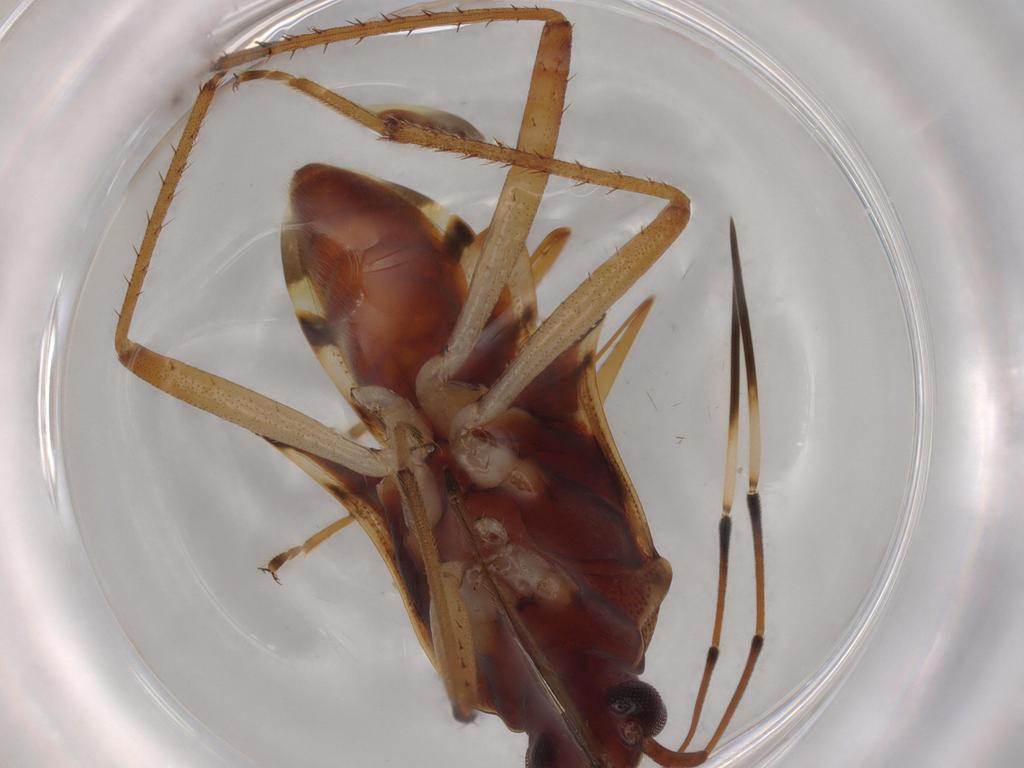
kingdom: Animalia
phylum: Arthropoda
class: Insecta
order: Hemiptera
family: Rhyparochromidae
